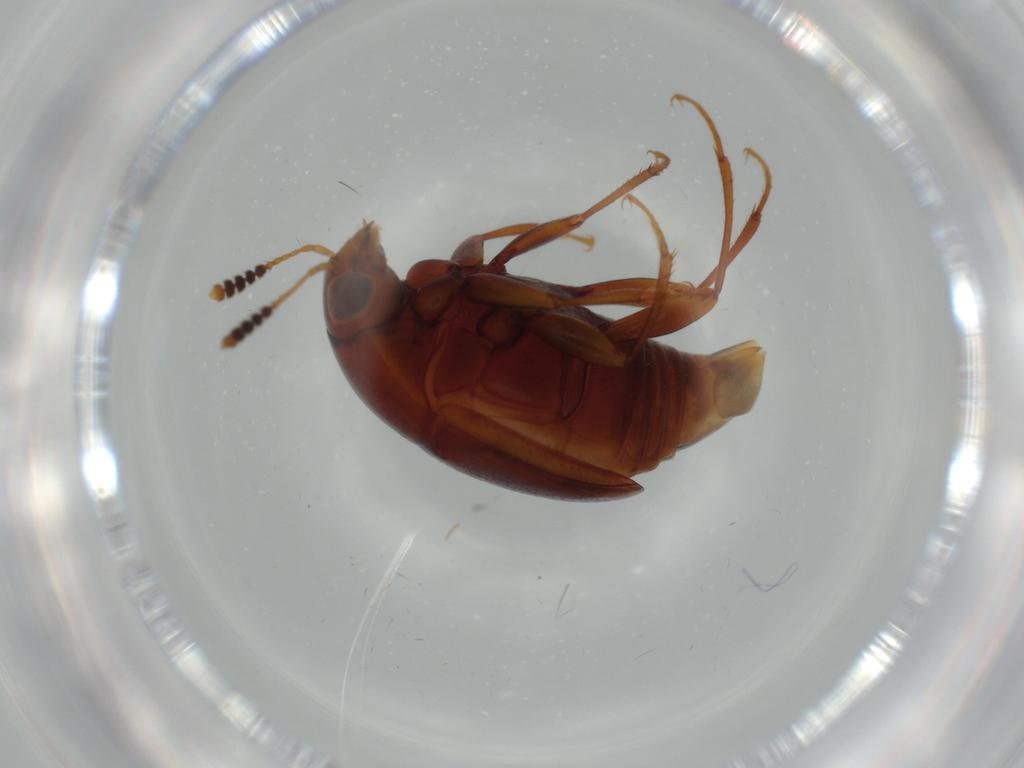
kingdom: Animalia
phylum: Arthropoda
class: Insecta
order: Coleoptera
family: Staphylinidae
